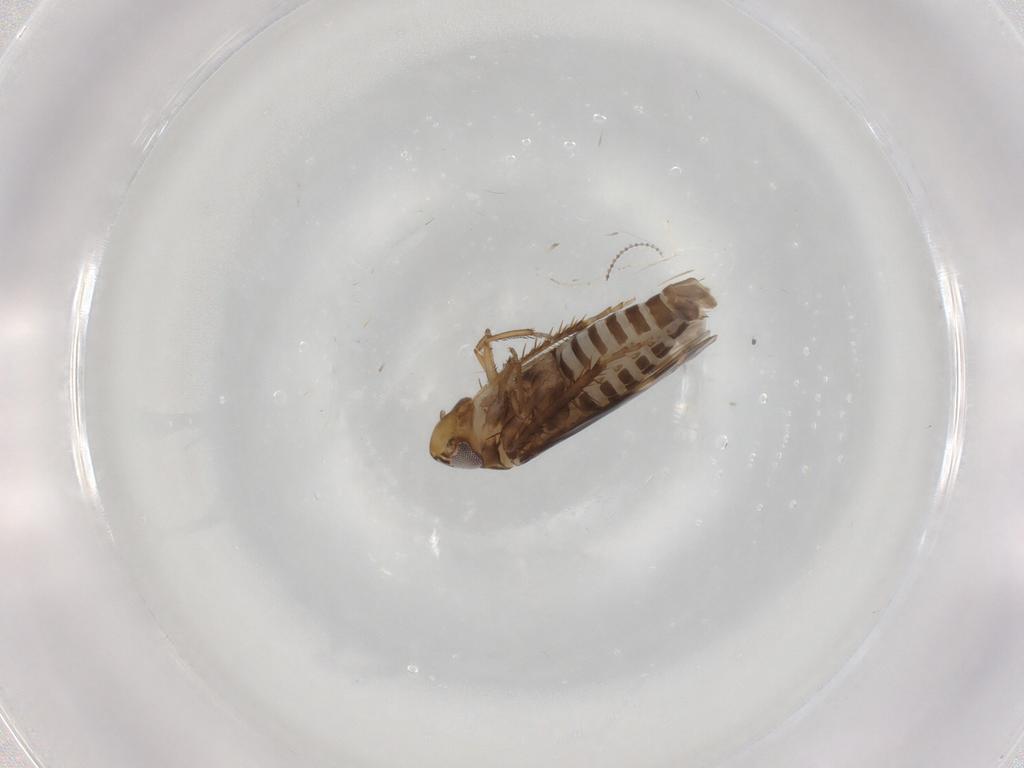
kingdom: Animalia
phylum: Arthropoda
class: Insecta
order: Hemiptera
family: Cicadellidae
